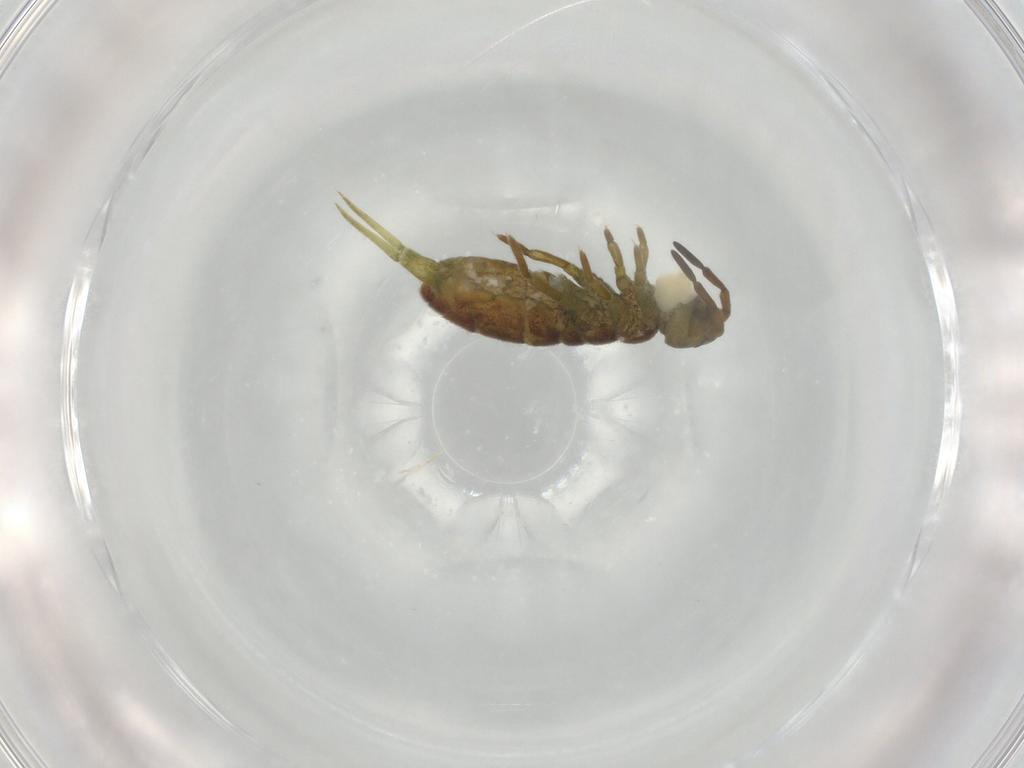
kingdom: Animalia
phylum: Arthropoda
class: Collembola
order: Entomobryomorpha
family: Isotomidae
